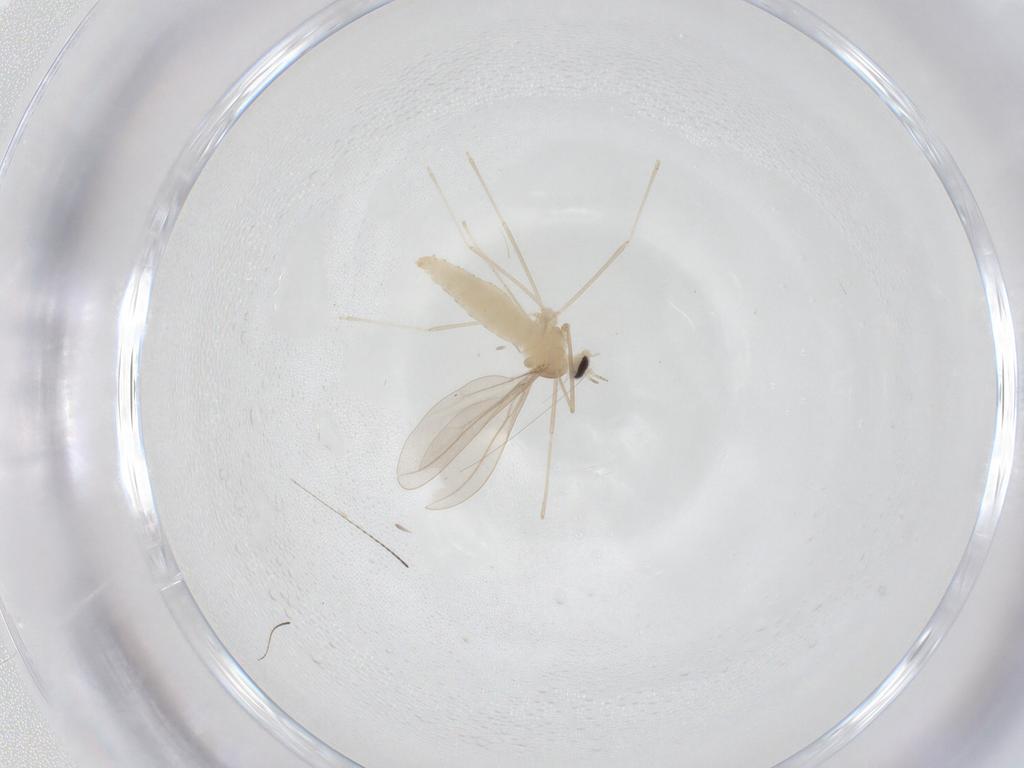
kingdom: Animalia
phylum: Arthropoda
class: Insecta
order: Diptera
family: Cecidomyiidae
